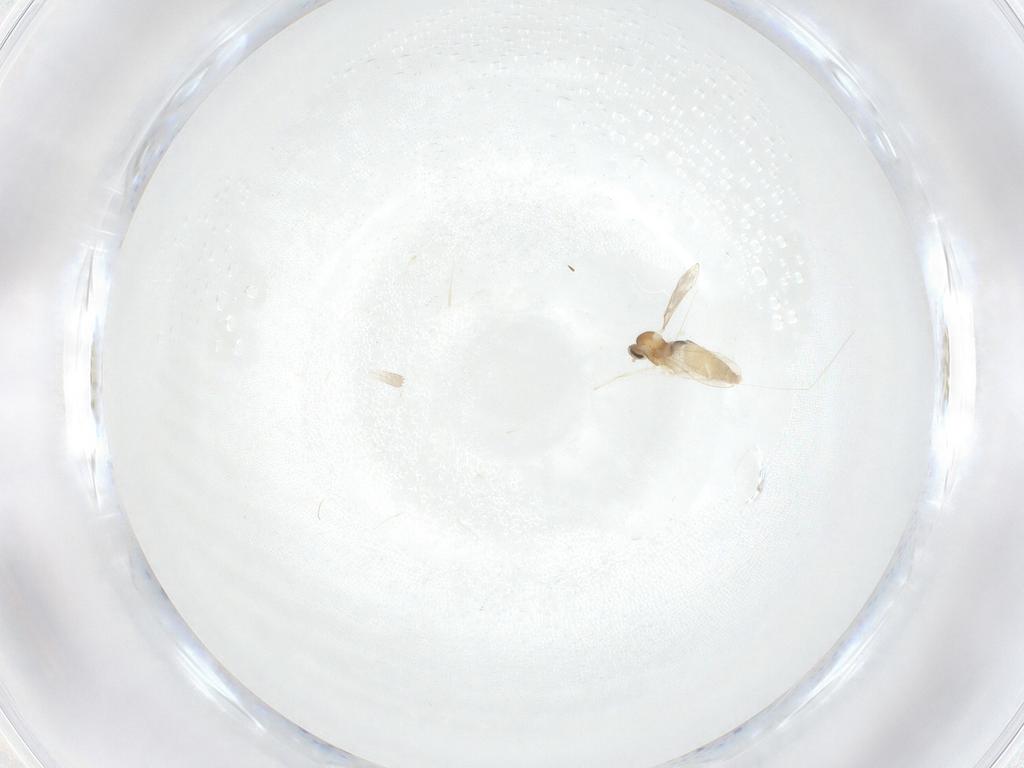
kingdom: Animalia
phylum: Arthropoda
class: Insecta
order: Diptera
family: Cecidomyiidae
